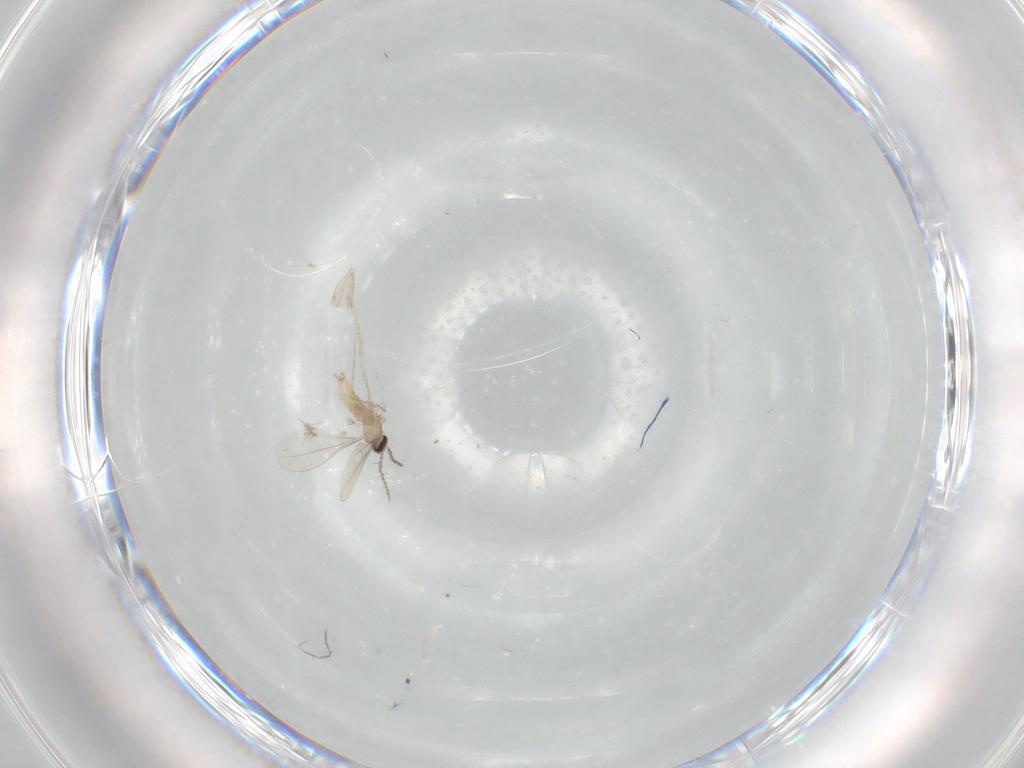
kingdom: Animalia
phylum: Arthropoda
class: Insecta
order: Diptera
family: Cecidomyiidae
